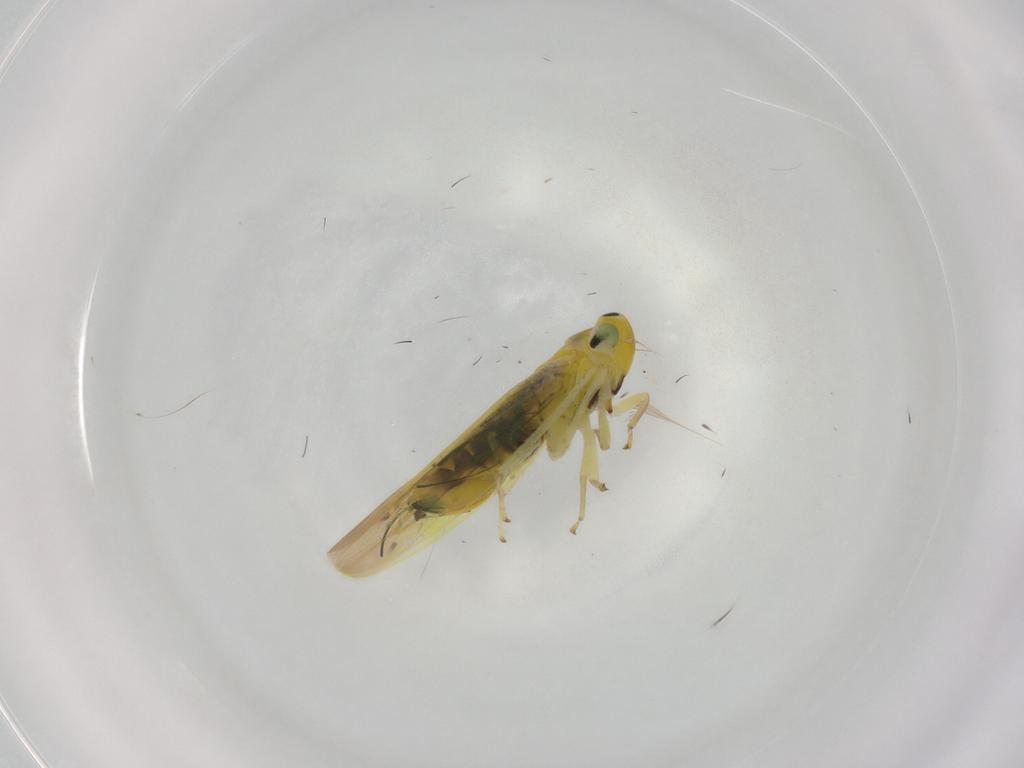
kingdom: Animalia
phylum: Arthropoda
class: Insecta
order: Hemiptera
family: Cicadellidae
